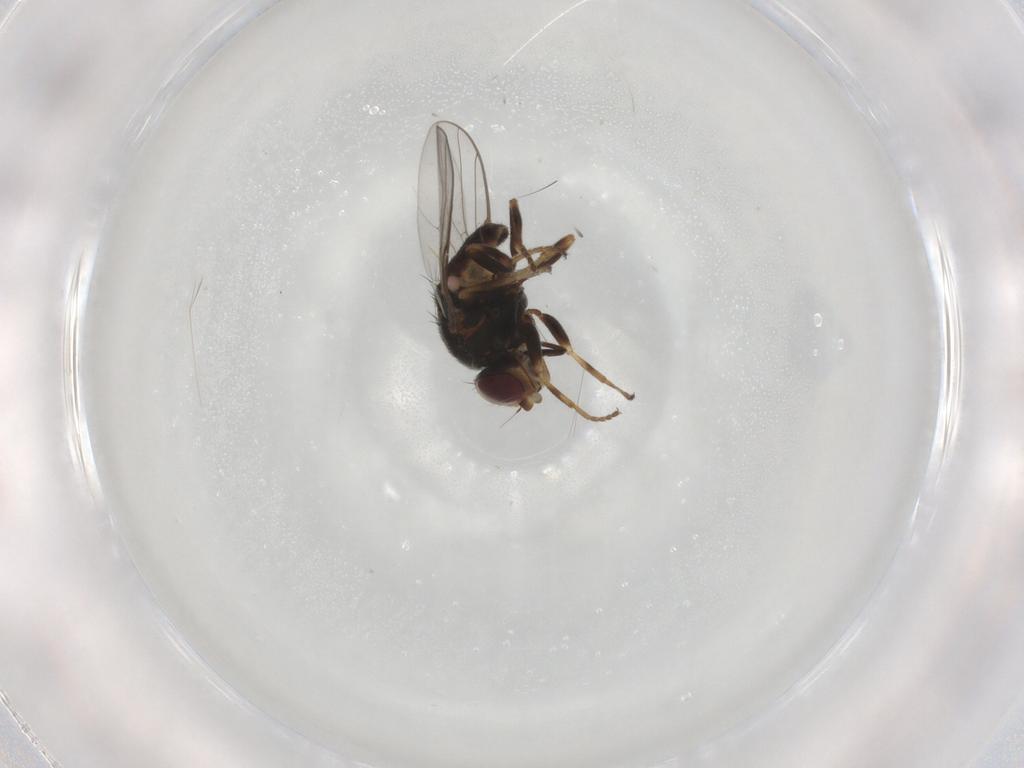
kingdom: Animalia
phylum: Arthropoda
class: Insecta
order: Diptera
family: Chloropidae
